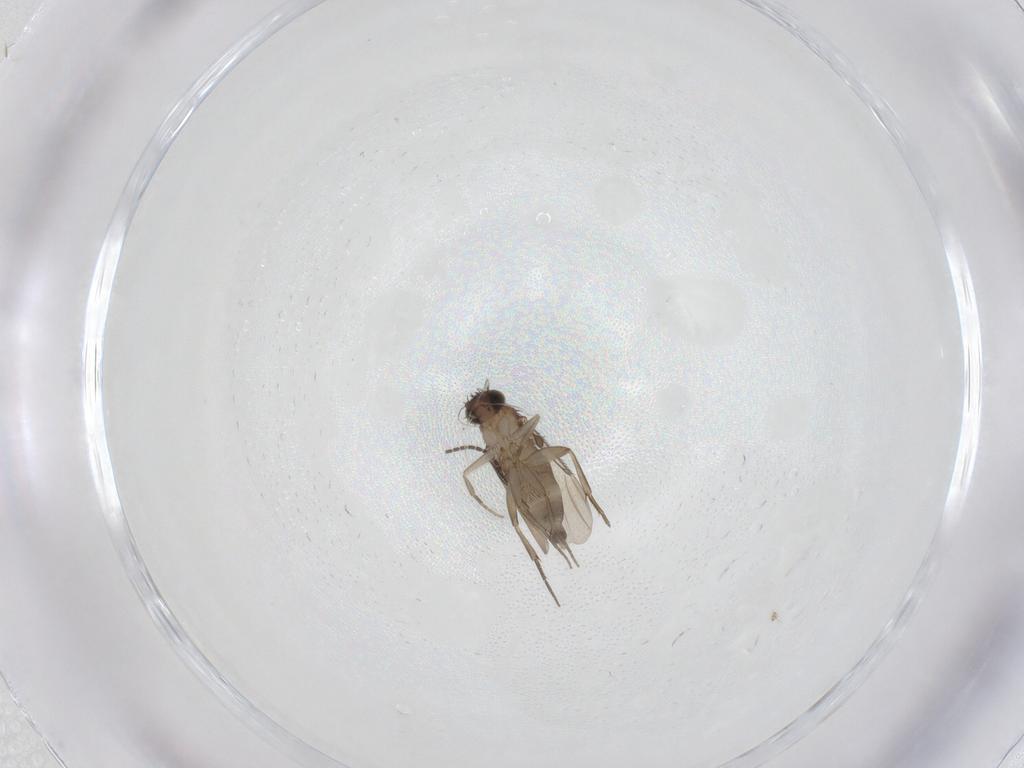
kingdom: Animalia
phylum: Arthropoda
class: Insecta
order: Diptera
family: Phoridae
